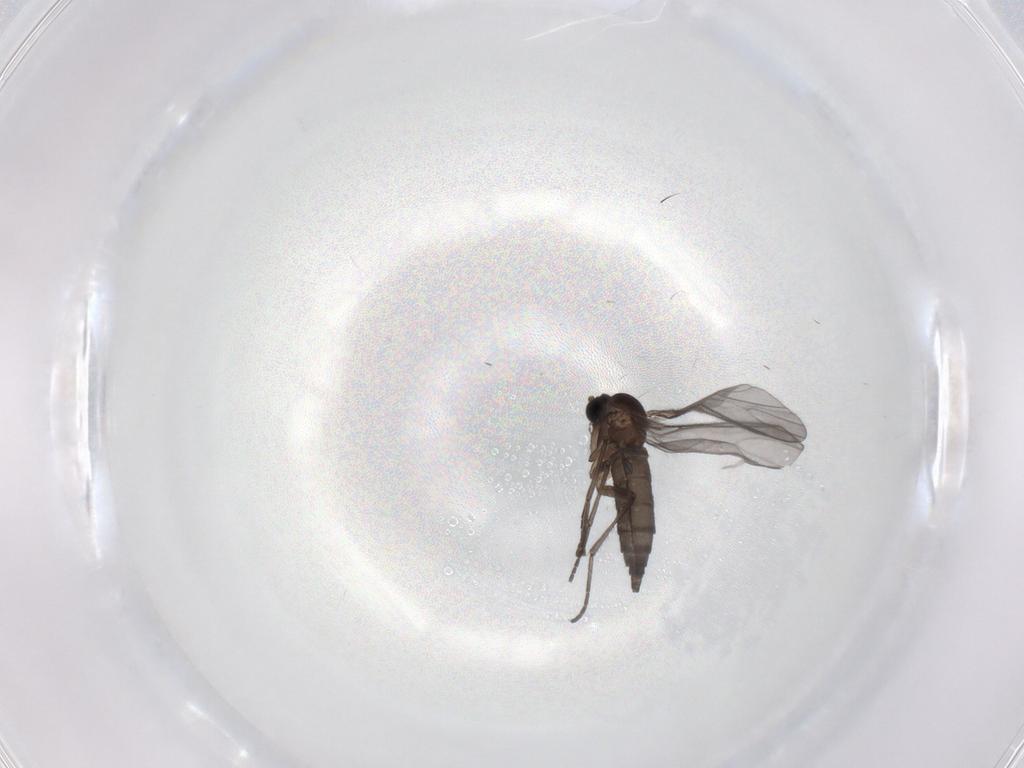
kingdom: Animalia
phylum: Arthropoda
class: Insecta
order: Diptera
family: Sciaridae
